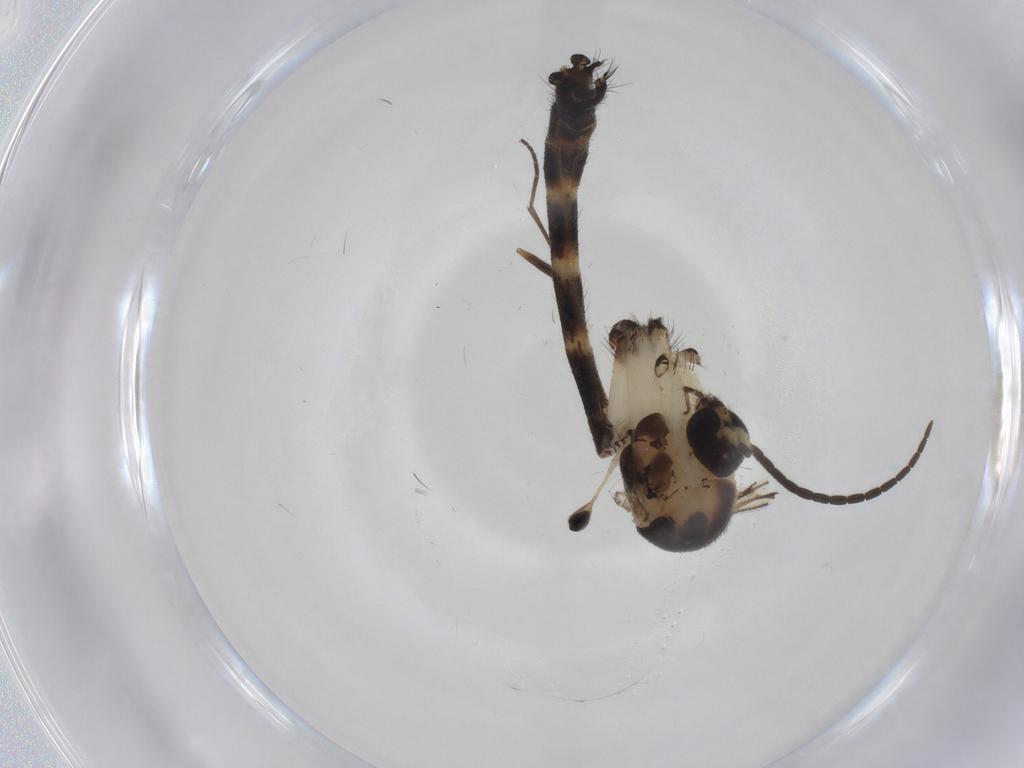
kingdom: Animalia
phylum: Arthropoda
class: Insecta
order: Diptera
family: Sciaridae
